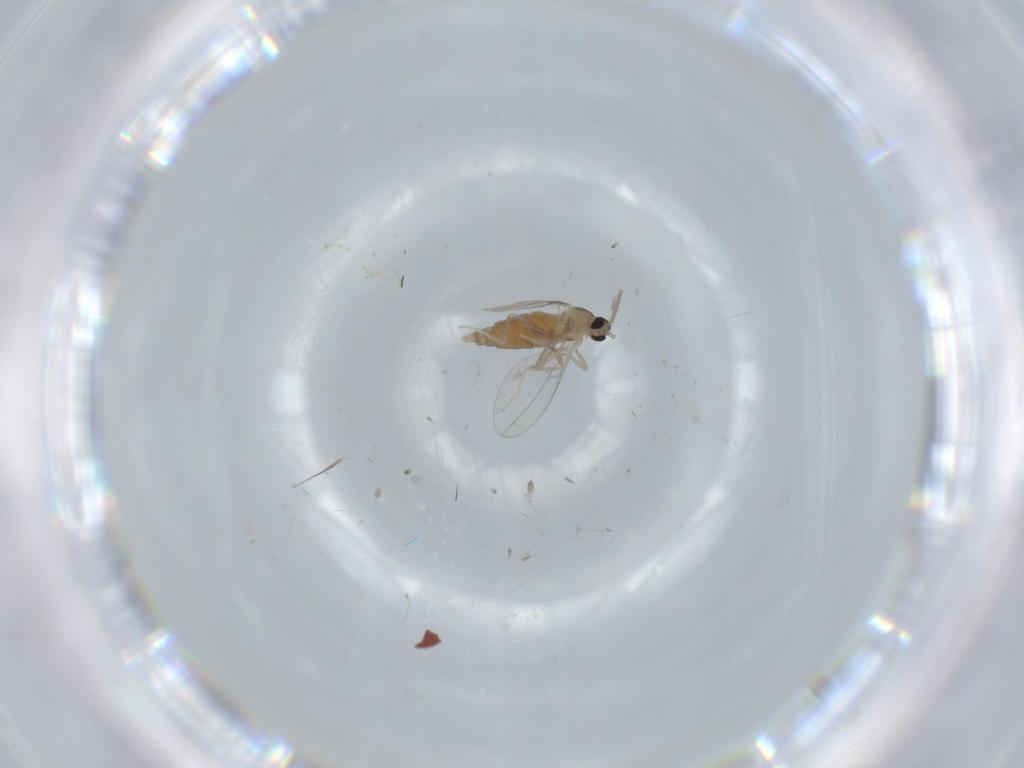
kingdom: Animalia
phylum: Arthropoda
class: Insecta
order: Diptera
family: Cecidomyiidae
